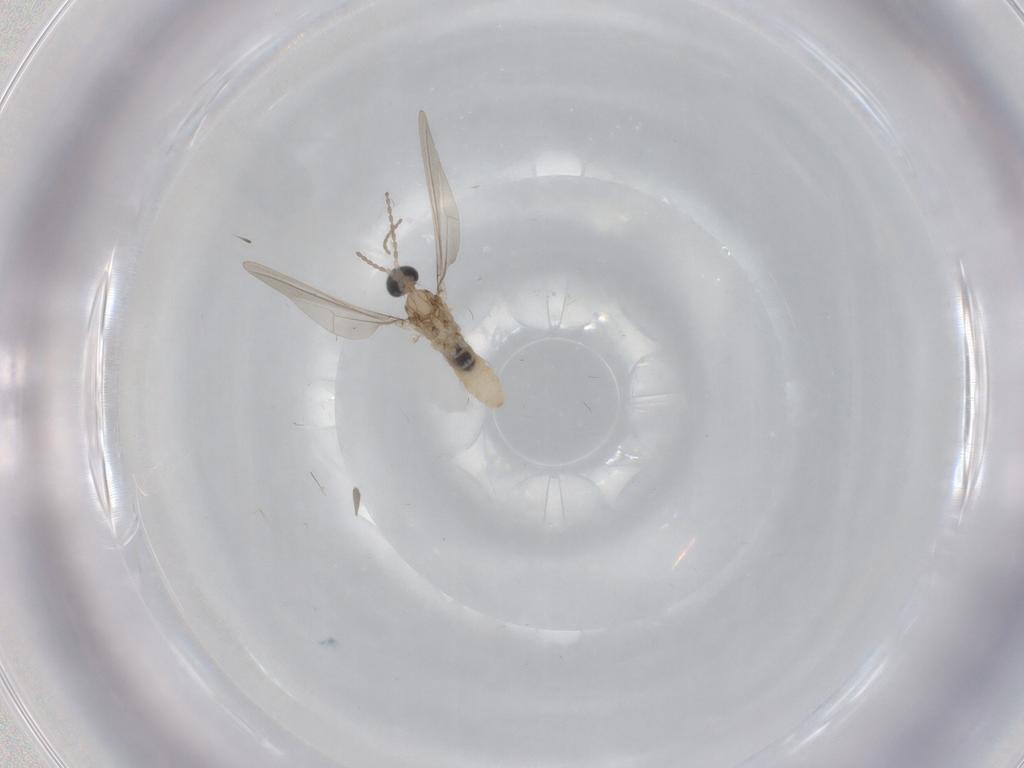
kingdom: Animalia
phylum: Arthropoda
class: Insecta
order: Diptera
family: Cecidomyiidae
